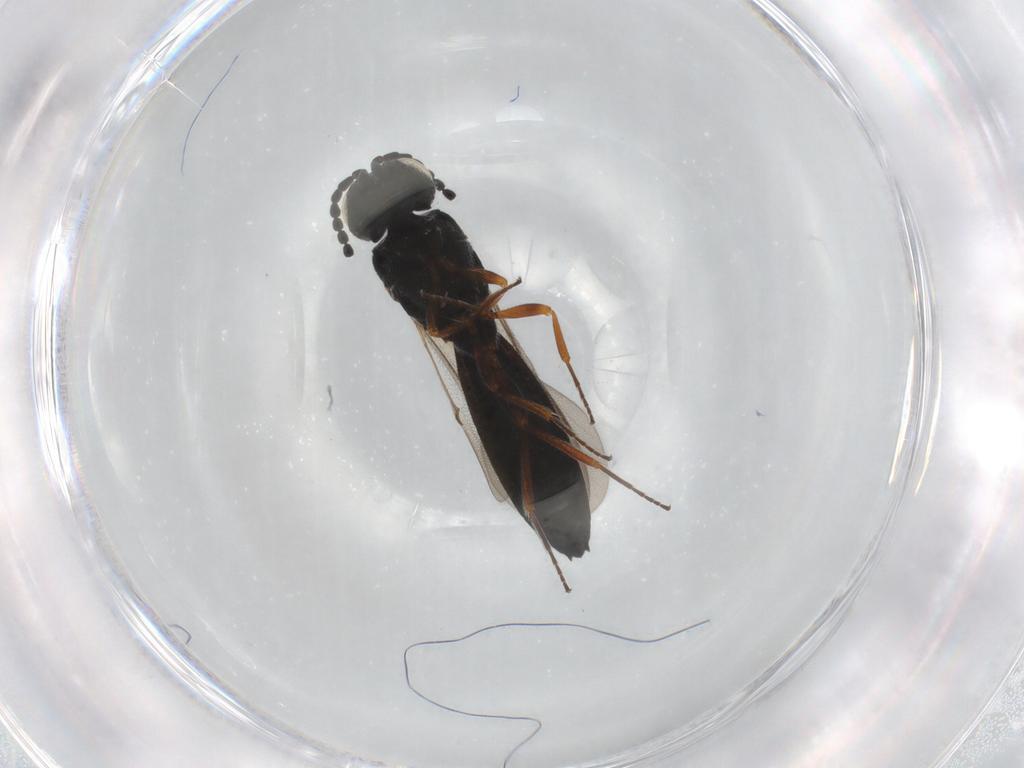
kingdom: Animalia
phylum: Arthropoda
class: Insecta
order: Hymenoptera
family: Scelionidae
